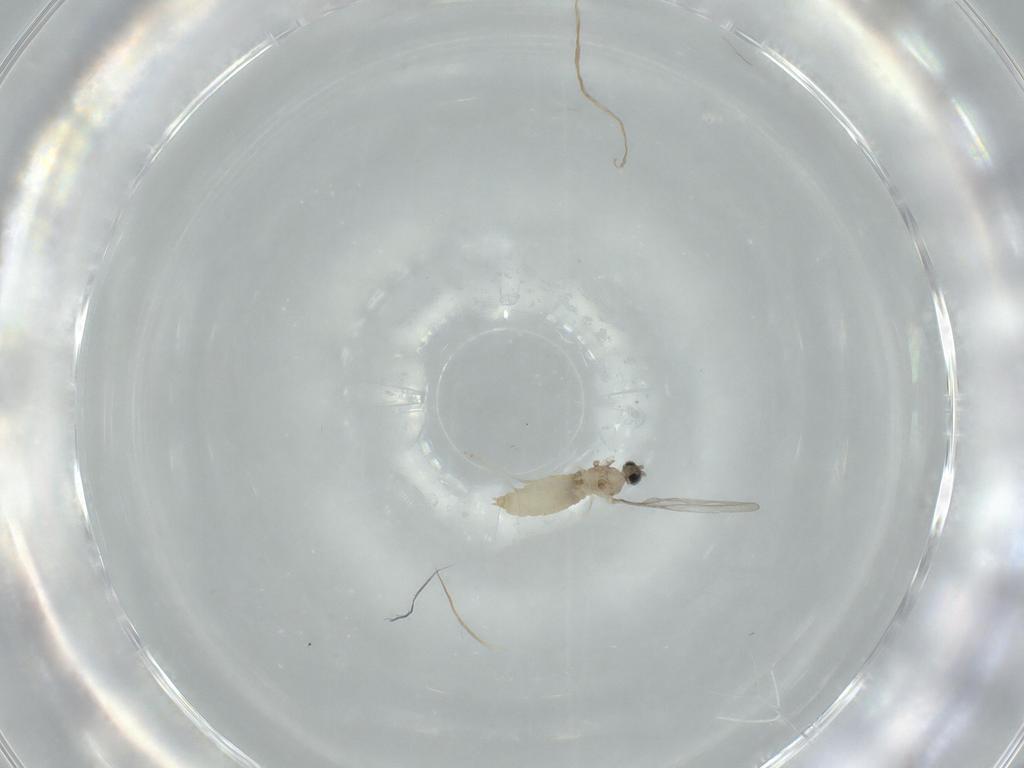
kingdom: Animalia
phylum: Arthropoda
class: Insecta
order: Diptera
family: Cecidomyiidae
